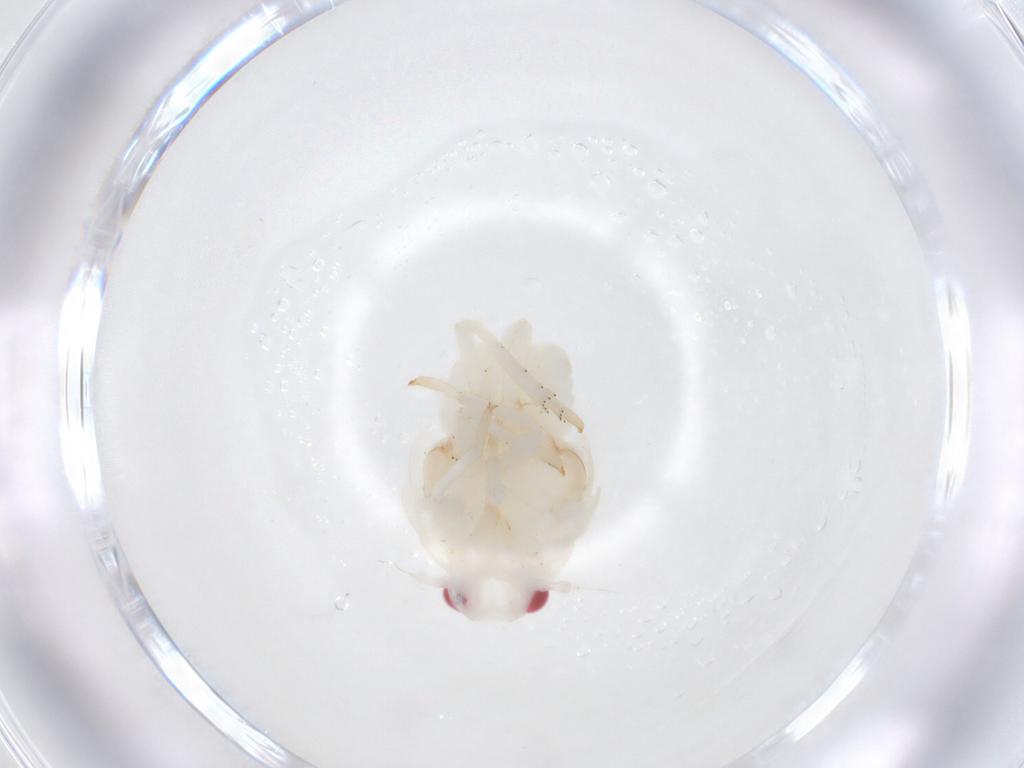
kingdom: Animalia
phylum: Arthropoda
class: Insecta
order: Hemiptera
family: Flatidae
